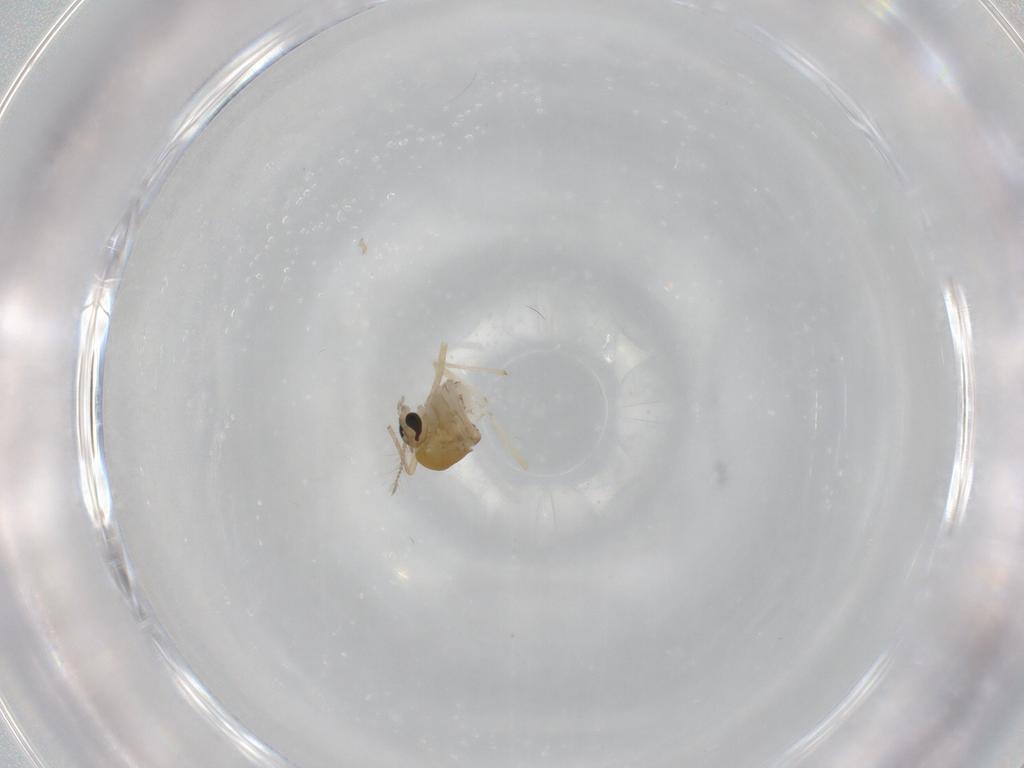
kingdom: Animalia
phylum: Arthropoda
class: Insecta
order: Diptera
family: Chironomidae
